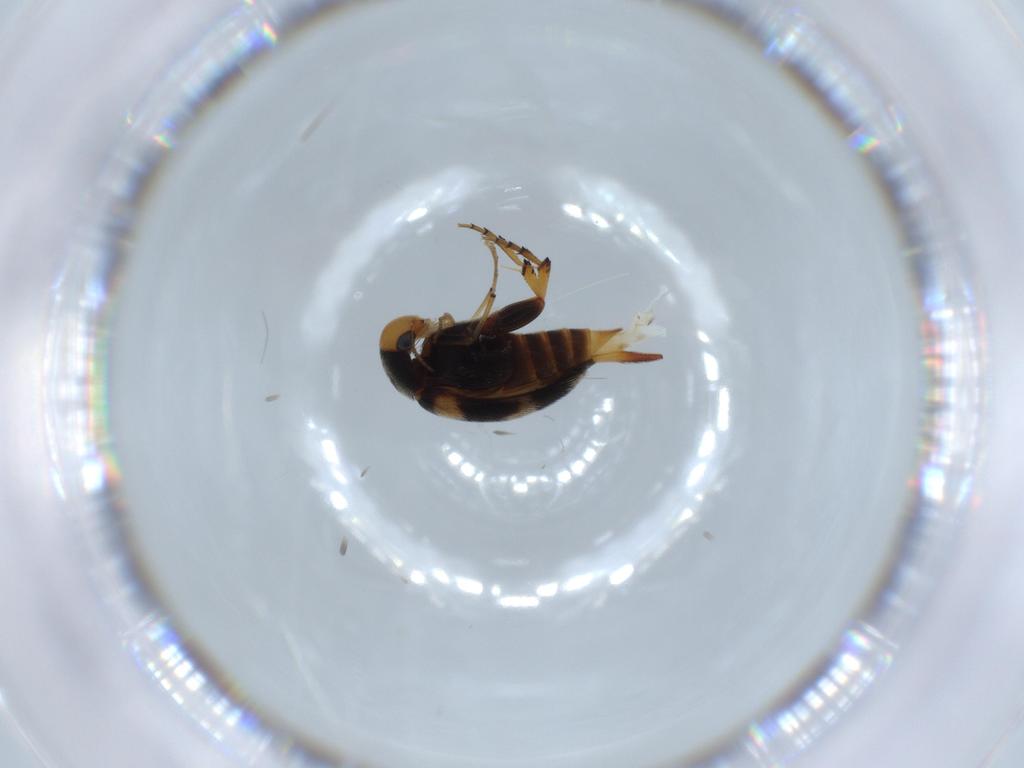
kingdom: Animalia
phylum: Arthropoda
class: Insecta
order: Coleoptera
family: Mordellidae
